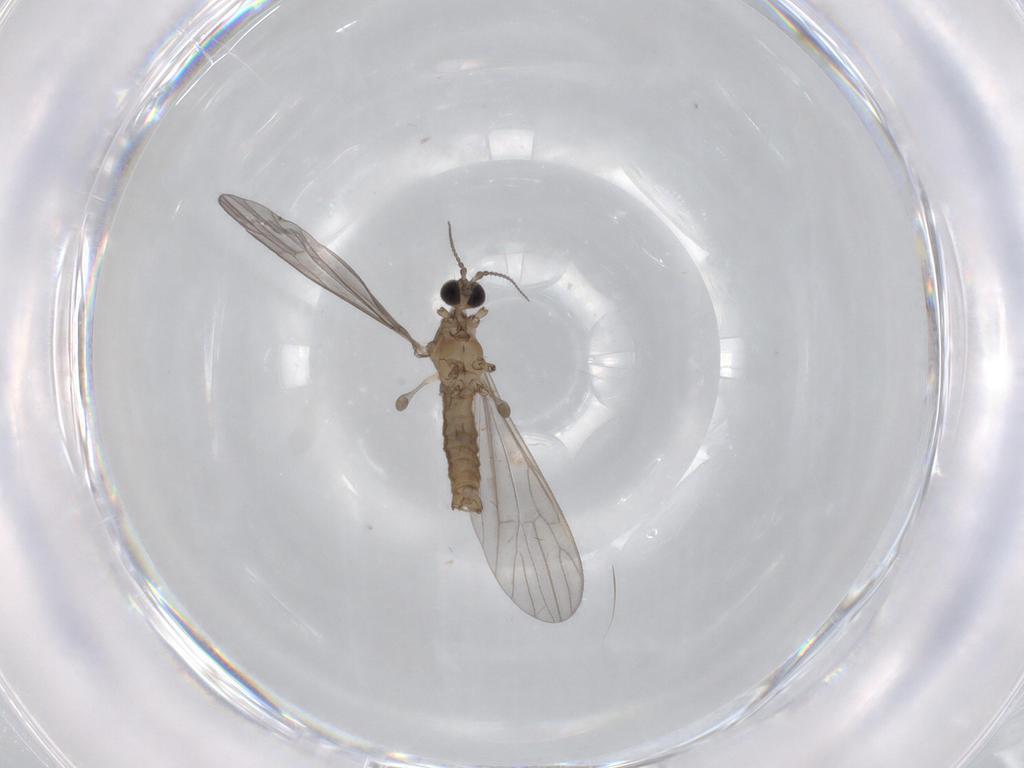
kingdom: Animalia
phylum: Arthropoda
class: Insecta
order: Diptera
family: Limoniidae
